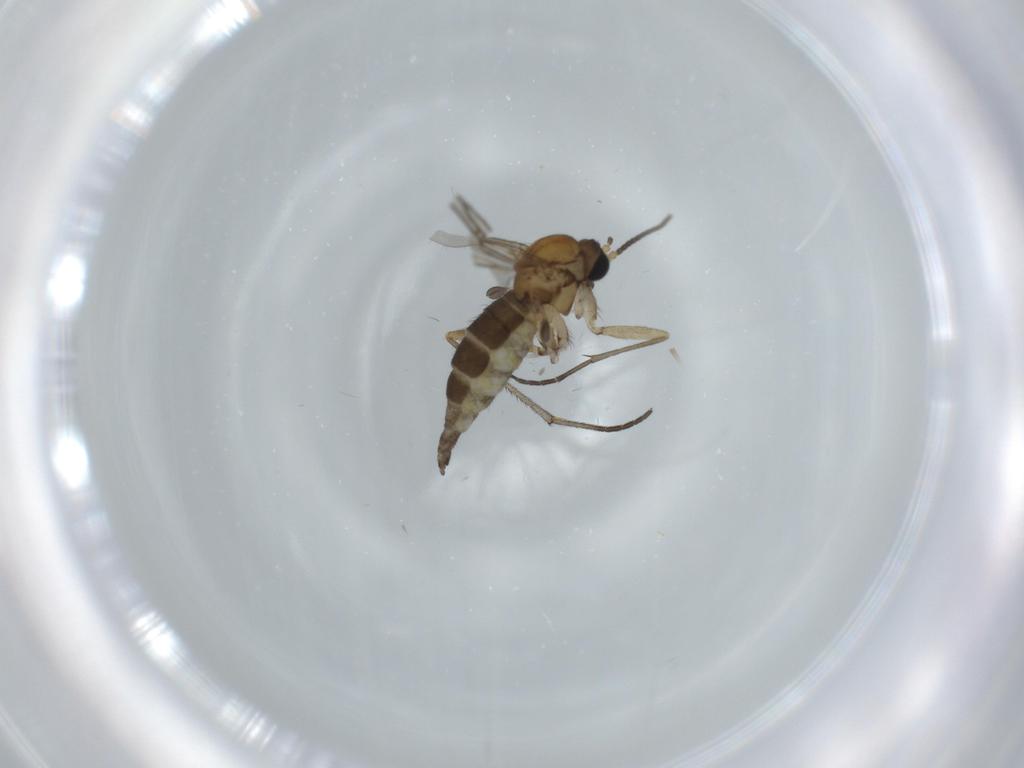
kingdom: Animalia
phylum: Arthropoda
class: Insecta
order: Diptera
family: Sciaridae
